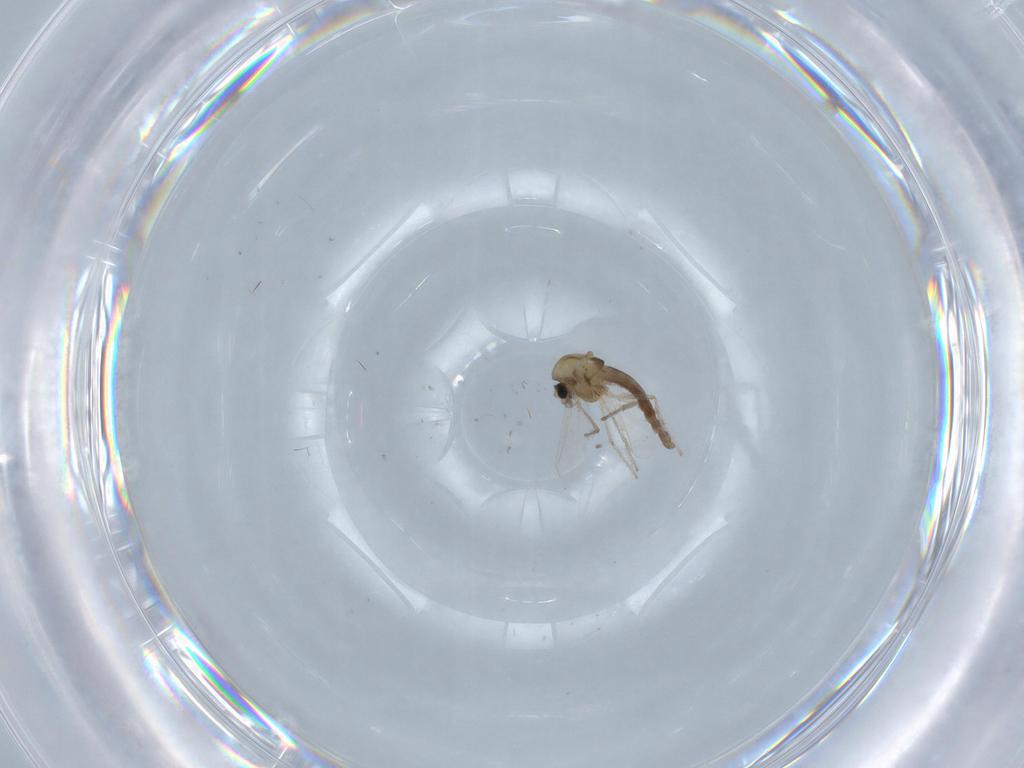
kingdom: Animalia
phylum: Arthropoda
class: Insecta
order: Diptera
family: Chironomidae
